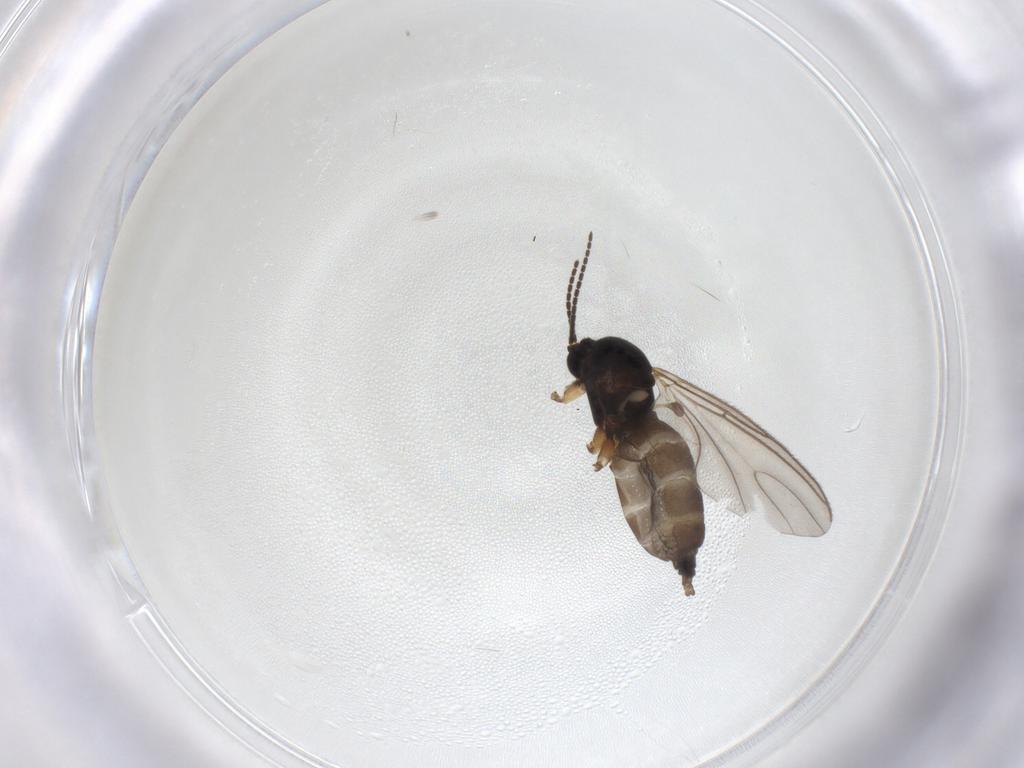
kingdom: Animalia
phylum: Arthropoda
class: Insecta
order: Diptera
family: Sciaridae
